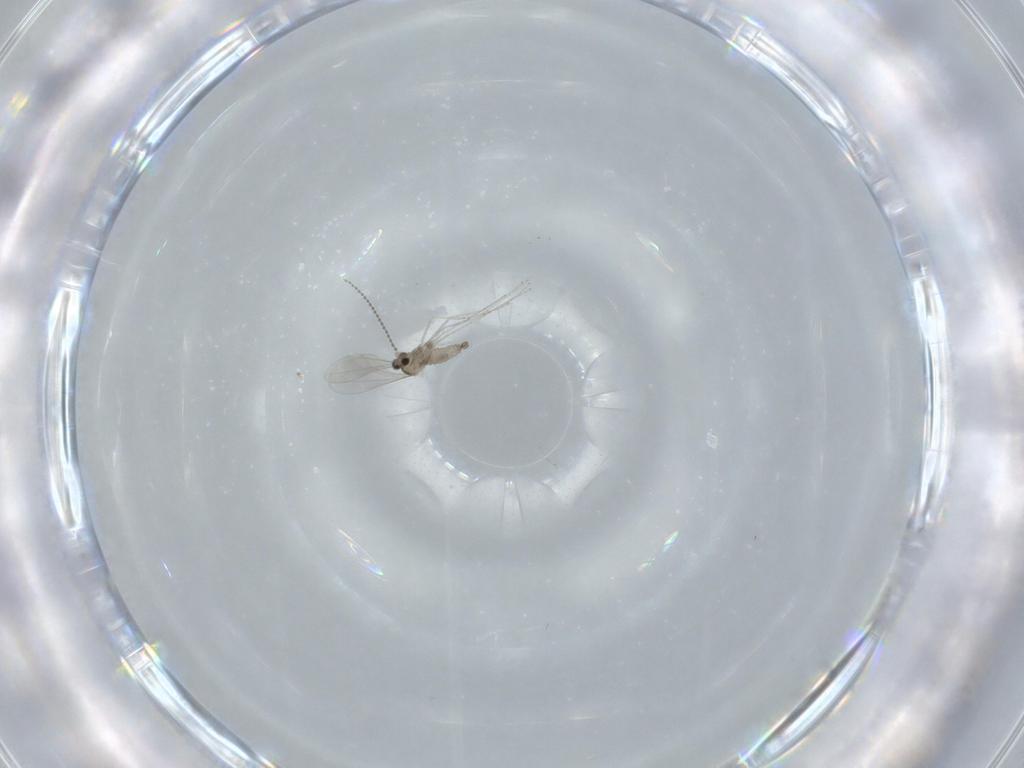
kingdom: Animalia
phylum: Arthropoda
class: Insecta
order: Diptera
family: Cecidomyiidae
